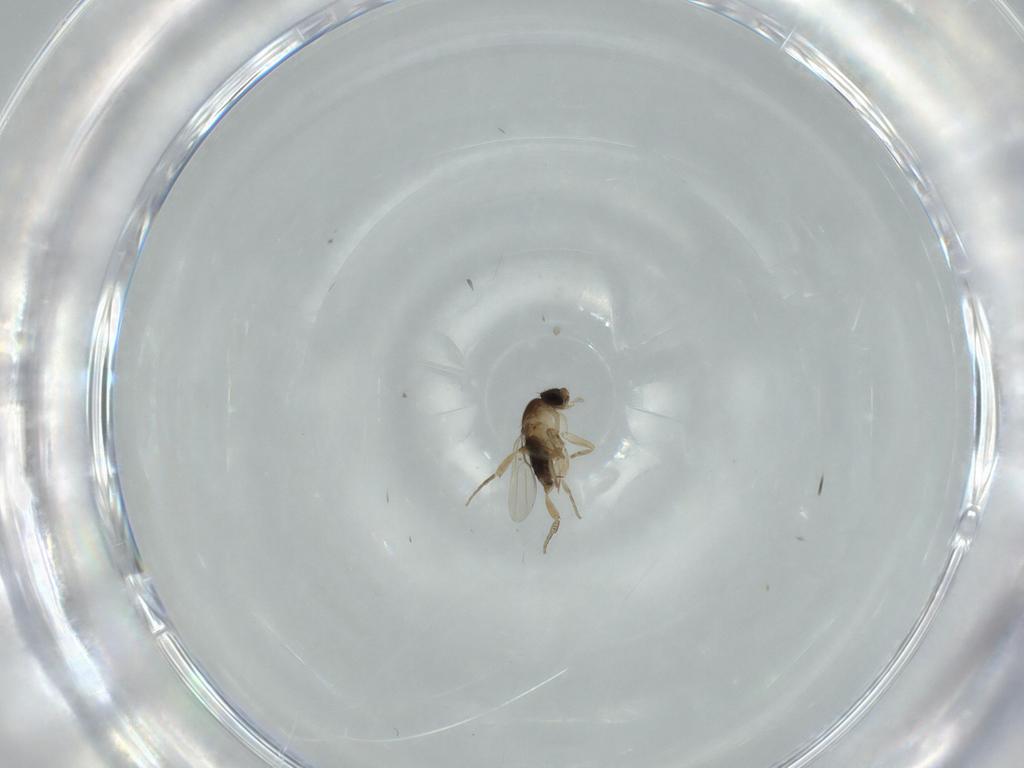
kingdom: Animalia
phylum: Arthropoda
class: Insecta
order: Diptera
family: Phoridae
